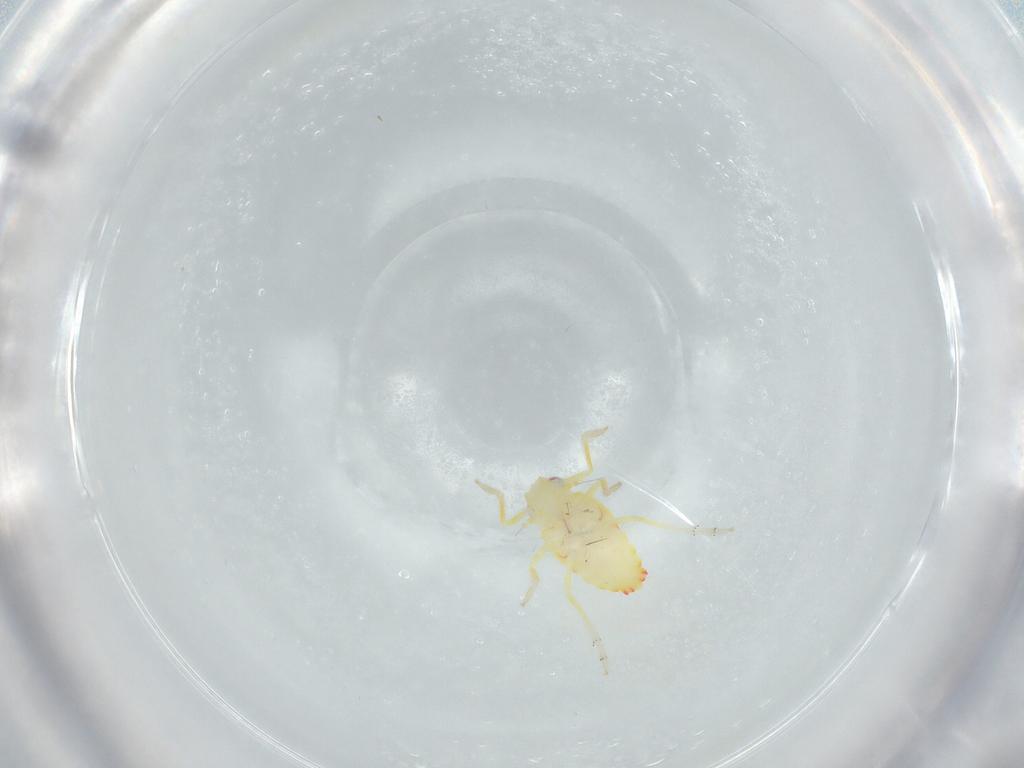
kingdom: Animalia
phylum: Arthropoda
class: Insecta
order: Hemiptera
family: Tropiduchidae
